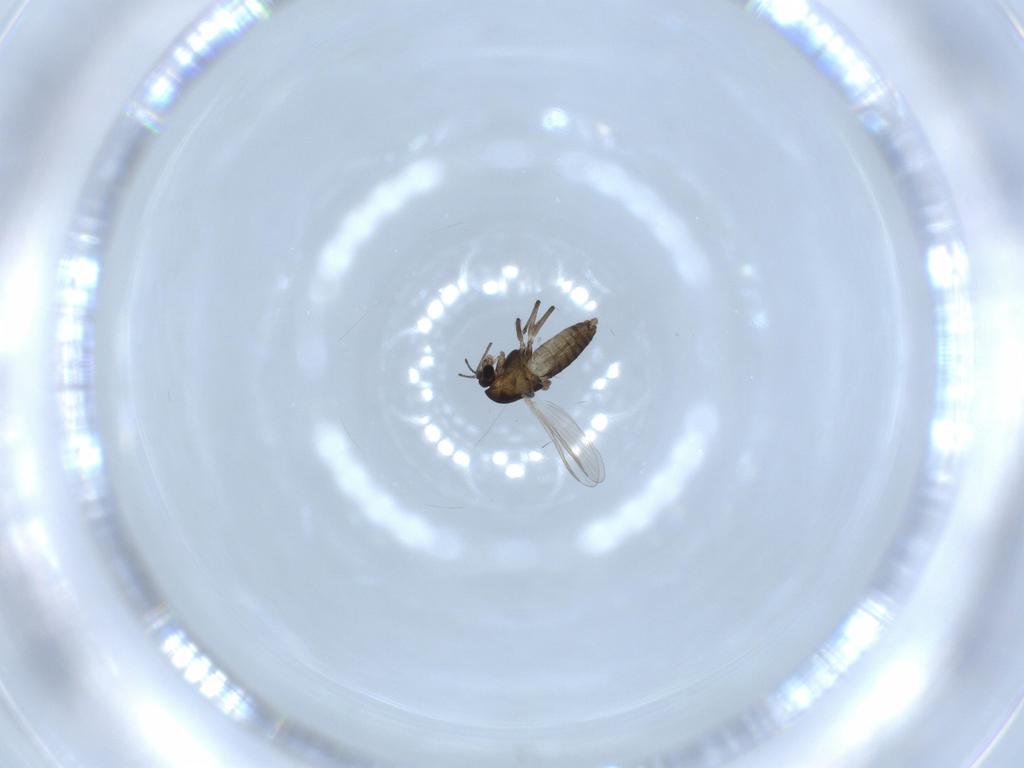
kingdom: Animalia
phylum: Arthropoda
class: Insecta
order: Diptera
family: Chironomidae
